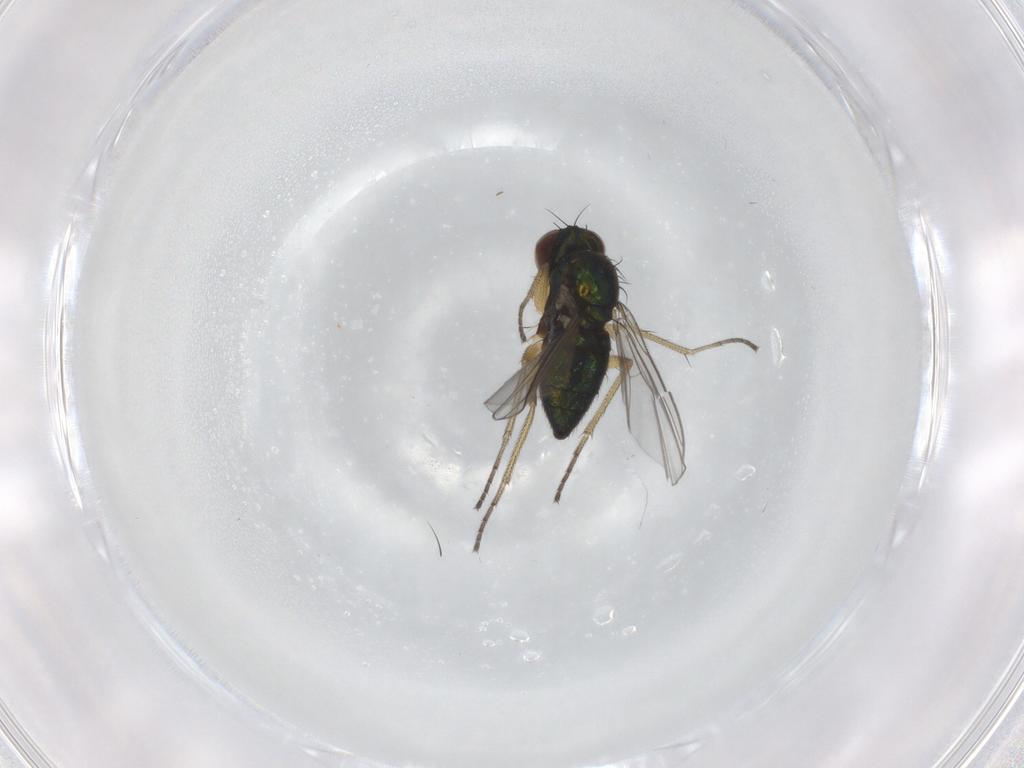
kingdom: Animalia
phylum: Arthropoda
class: Insecta
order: Diptera
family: Dolichopodidae
